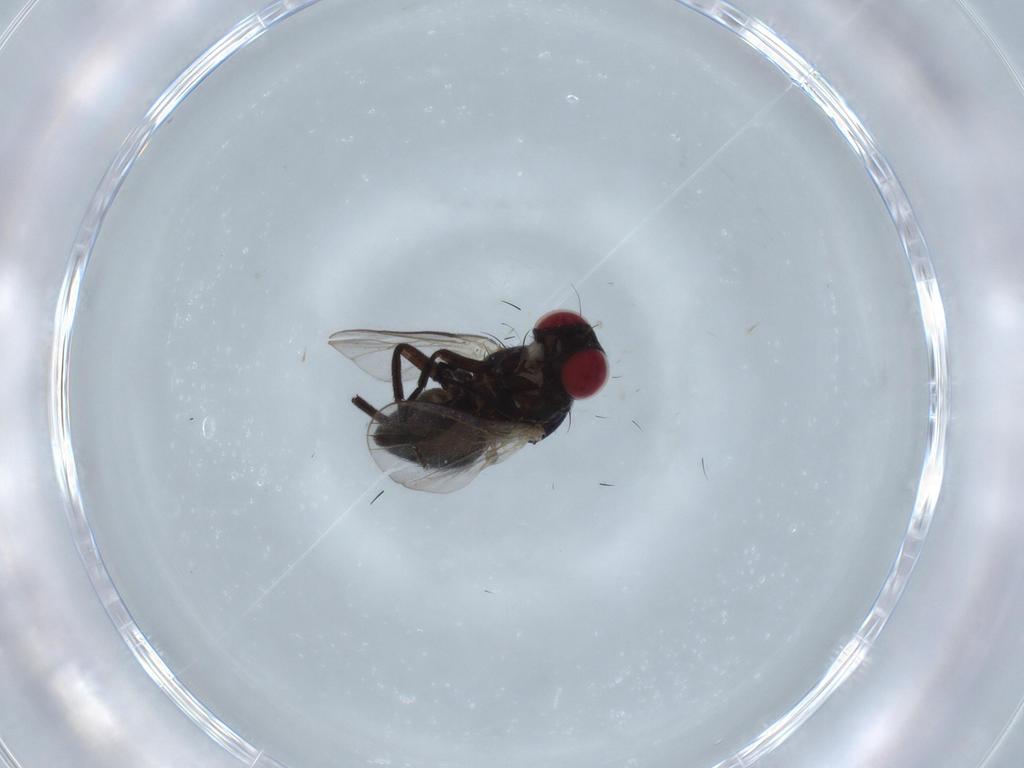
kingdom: Animalia
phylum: Arthropoda
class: Insecta
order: Diptera
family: Agromyzidae
